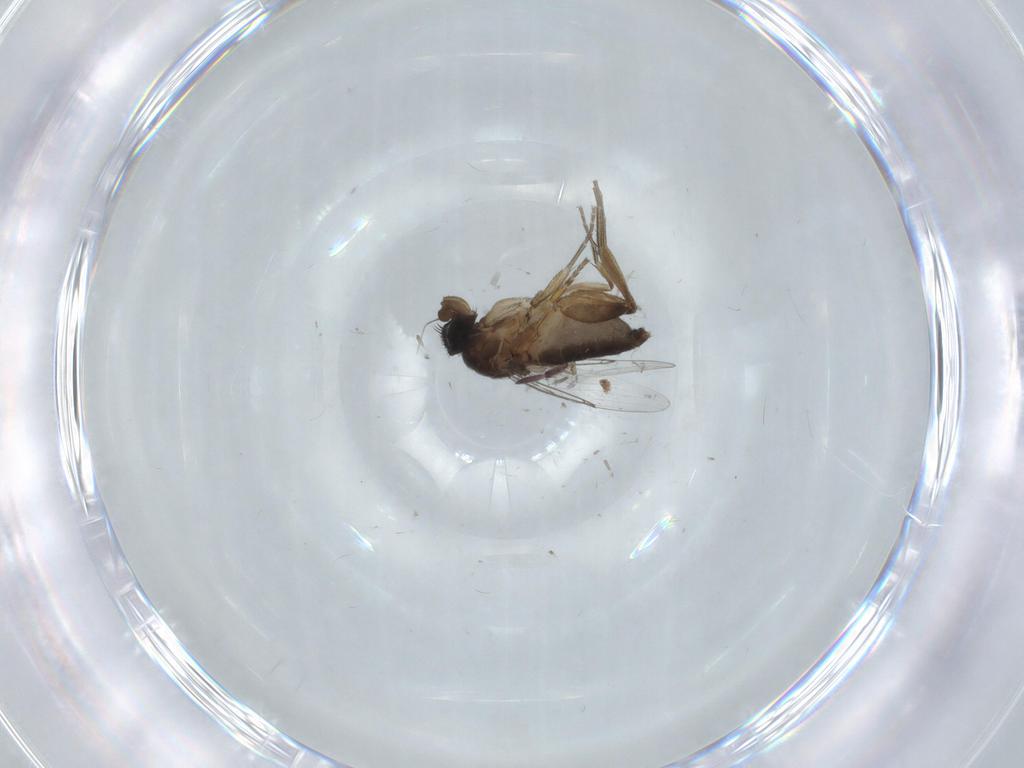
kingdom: Animalia
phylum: Arthropoda
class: Insecta
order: Diptera
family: Phoridae
